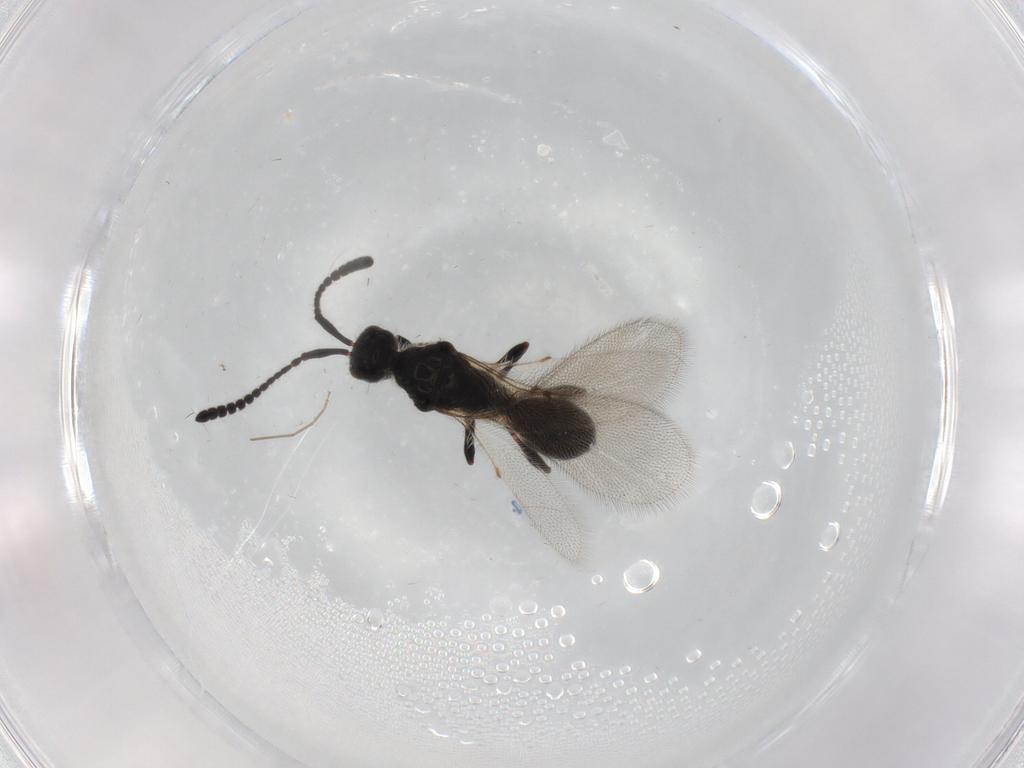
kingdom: Animalia
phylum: Arthropoda
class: Insecta
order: Hymenoptera
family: Diapriidae
